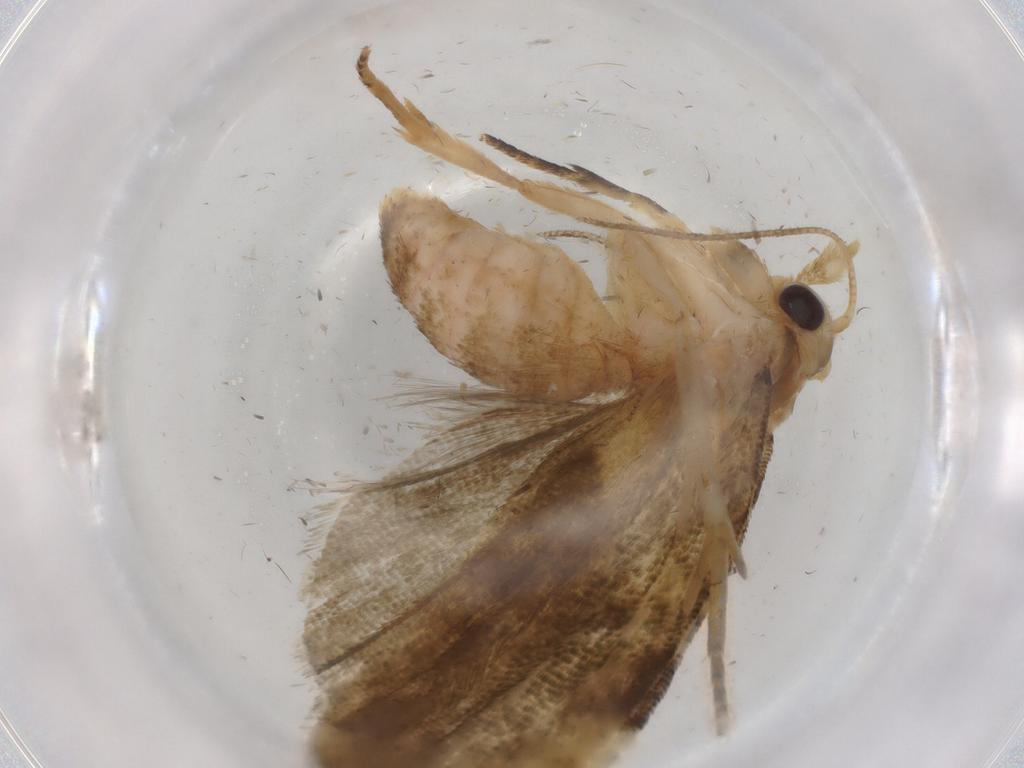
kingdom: Animalia
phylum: Arthropoda
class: Insecta
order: Lepidoptera
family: Tortricidae
